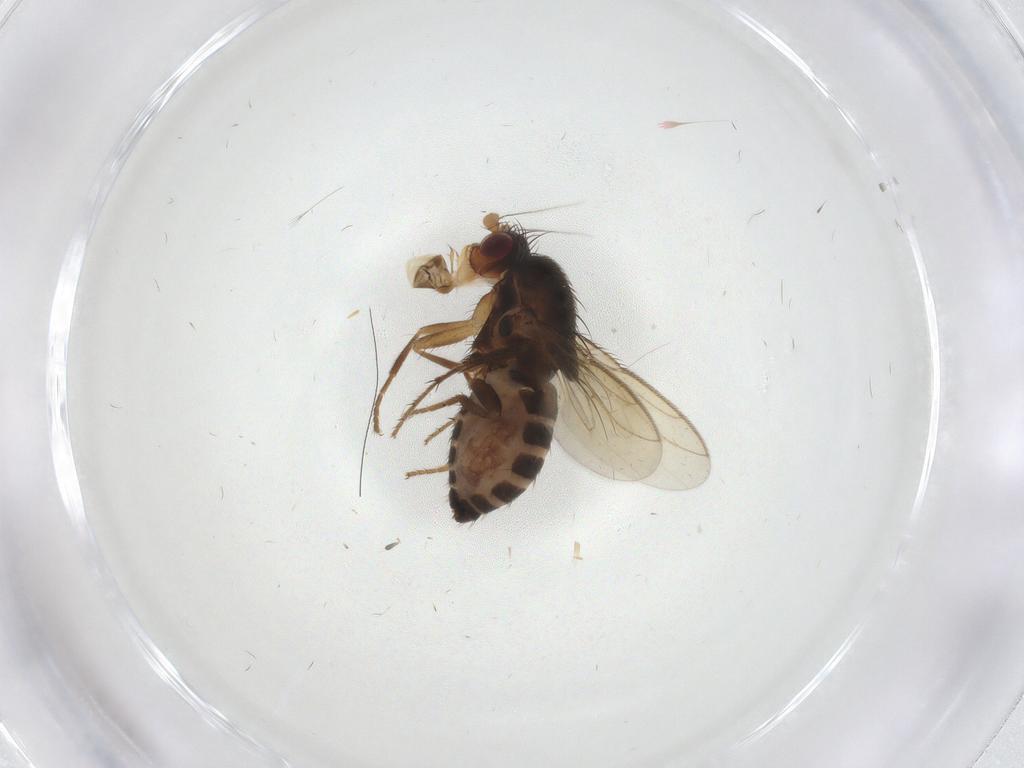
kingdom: Animalia
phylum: Arthropoda
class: Insecta
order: Diptera
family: Sphaeroceridae
